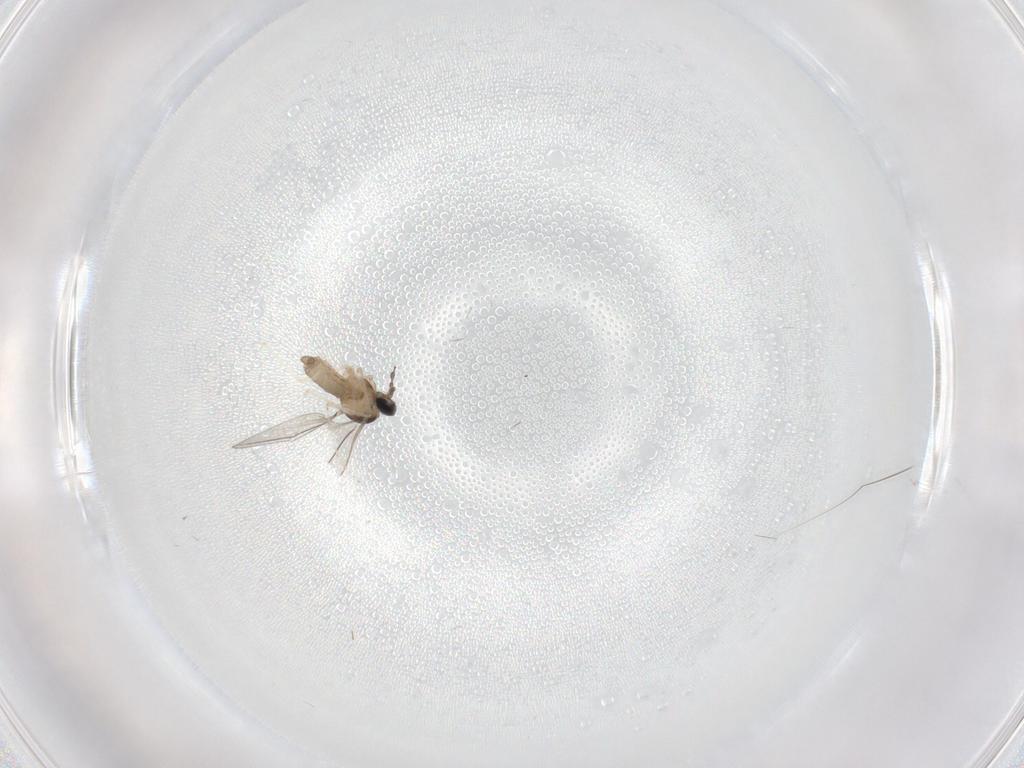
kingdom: Animalia
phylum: Arthropoda
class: Insecta
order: Diptera
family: Cecidomyiidae
